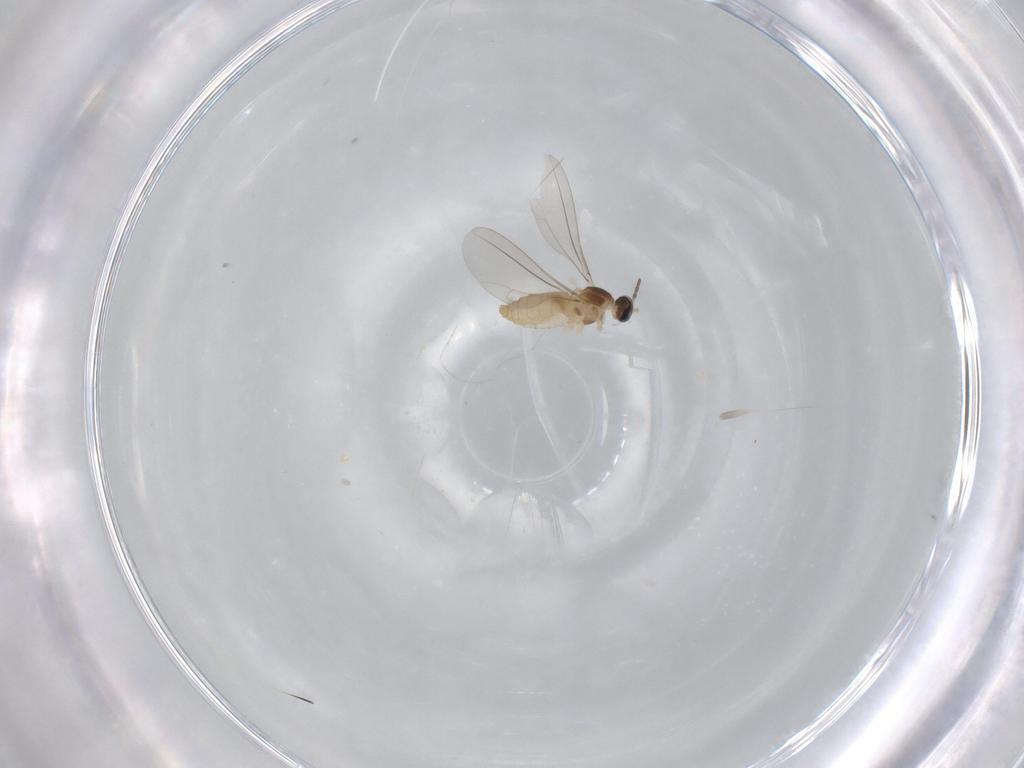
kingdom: Animalia
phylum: Arthropoda
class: Insecta
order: Diptera
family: Cecidomyiidae
